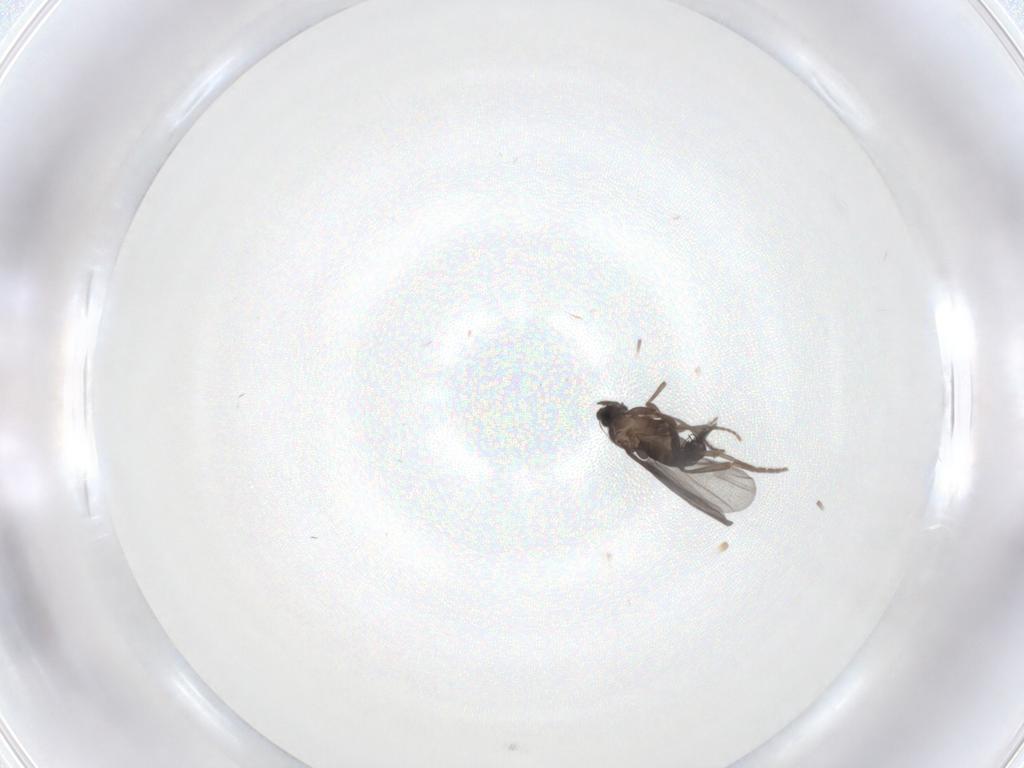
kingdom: Animalia
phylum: Arthropoda
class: Insecta
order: Diptera
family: Phoridae
